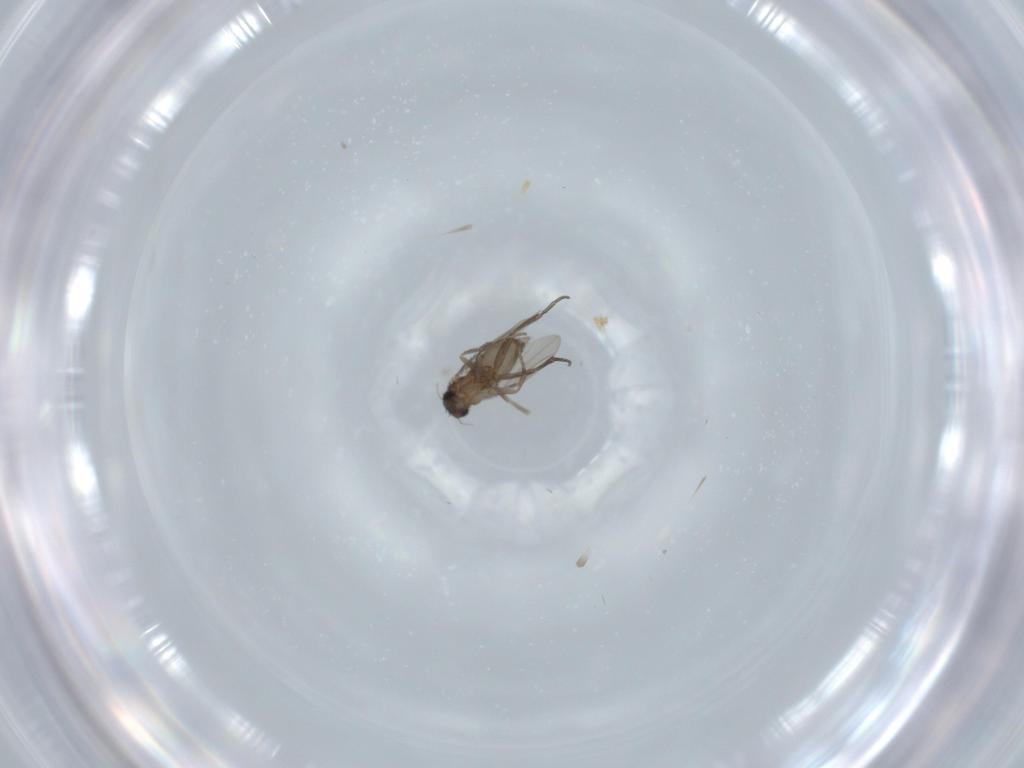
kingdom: Animalia
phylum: Arthropoda
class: Insecta
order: Diptera
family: Phoridae
